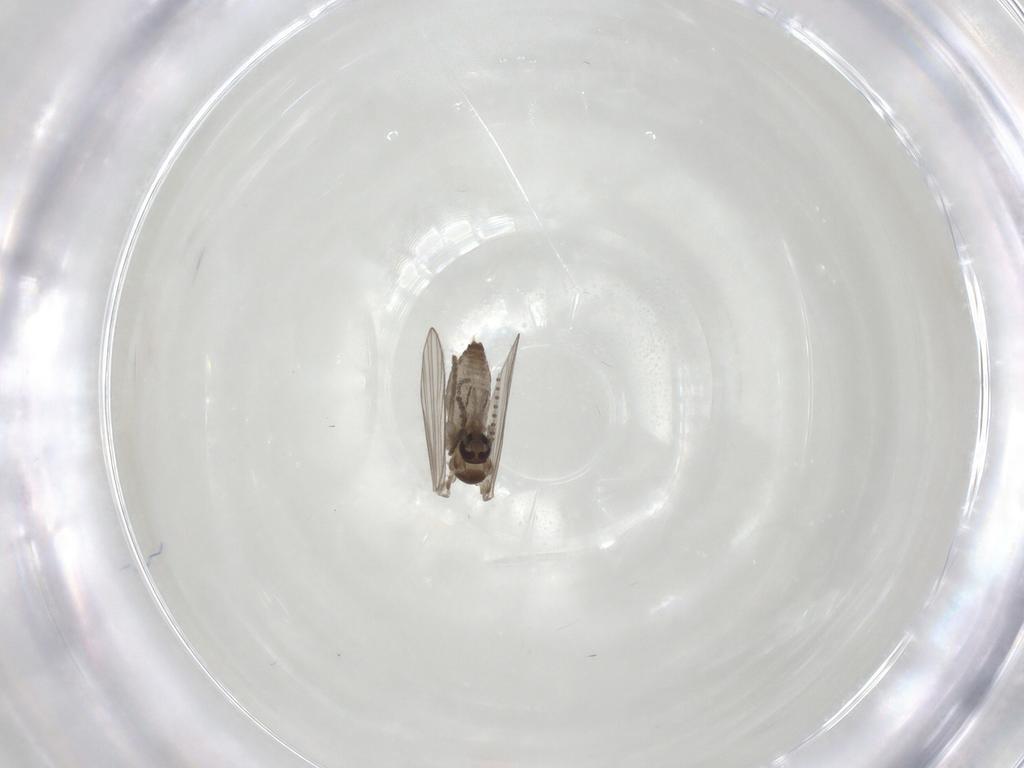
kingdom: Animalia
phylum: Arthropoda
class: Insecta
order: Diptera
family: Psychodidae
